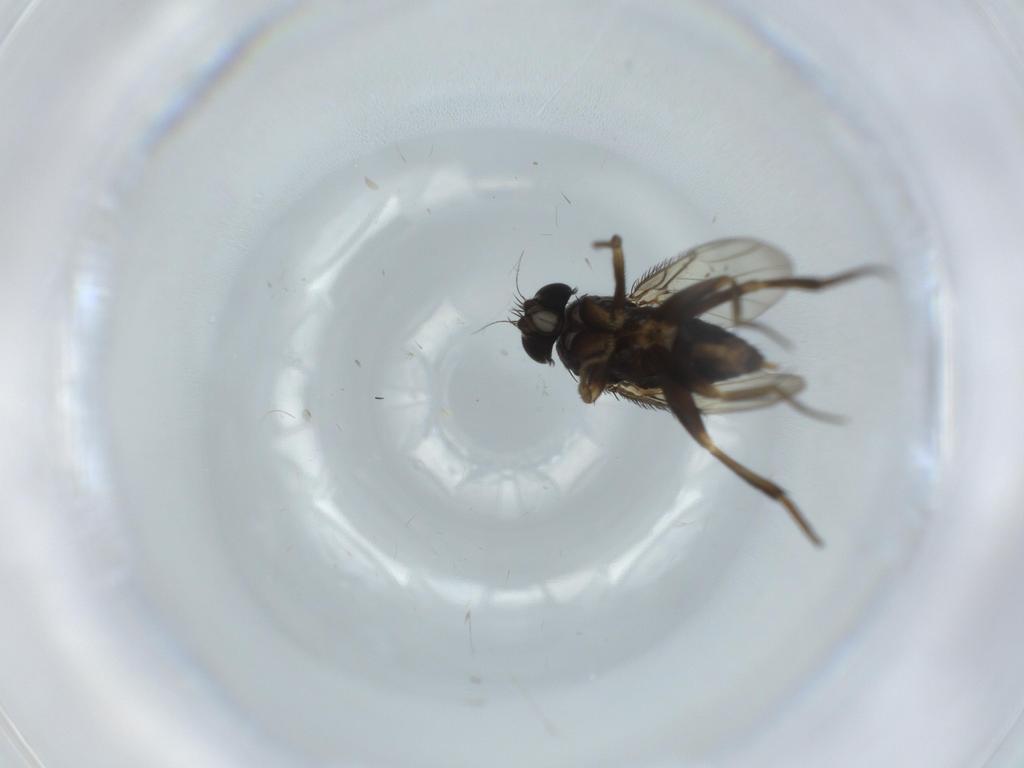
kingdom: Animalia
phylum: Arthropoda
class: Insecta
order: Diptera
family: Phoridae
